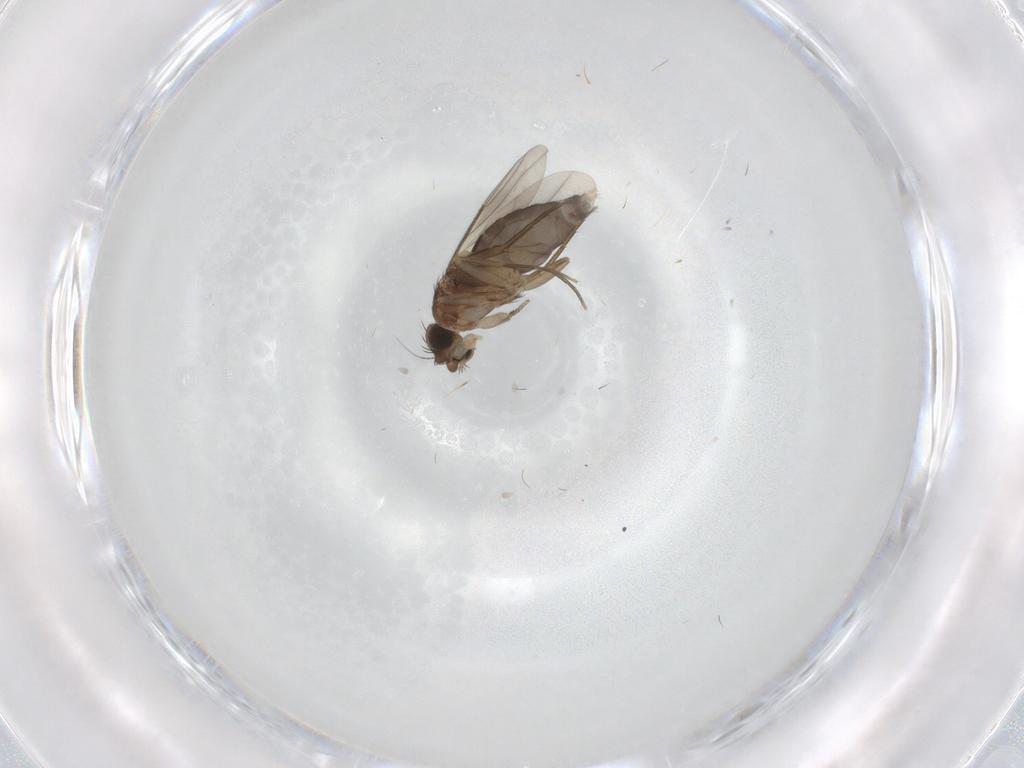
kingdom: Animalia
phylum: Arthropoda
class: Insecta
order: Diptera
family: Phoridae
